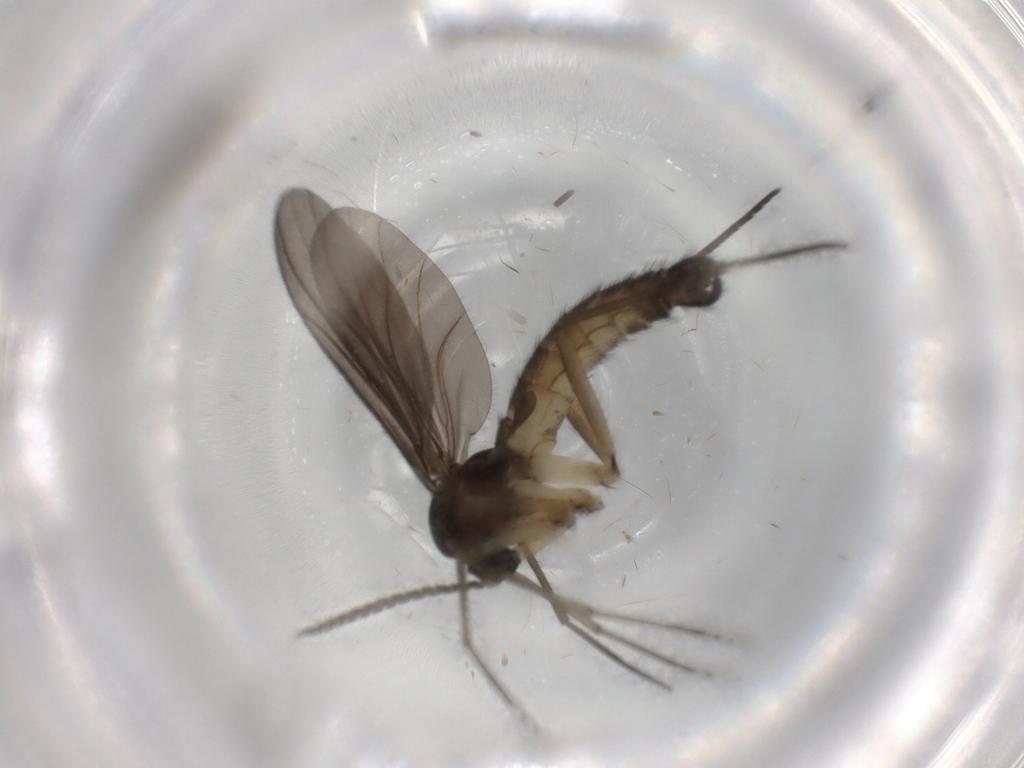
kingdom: Animalia
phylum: Arthropoda
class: Insecta
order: Diptera
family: Sciaridae
